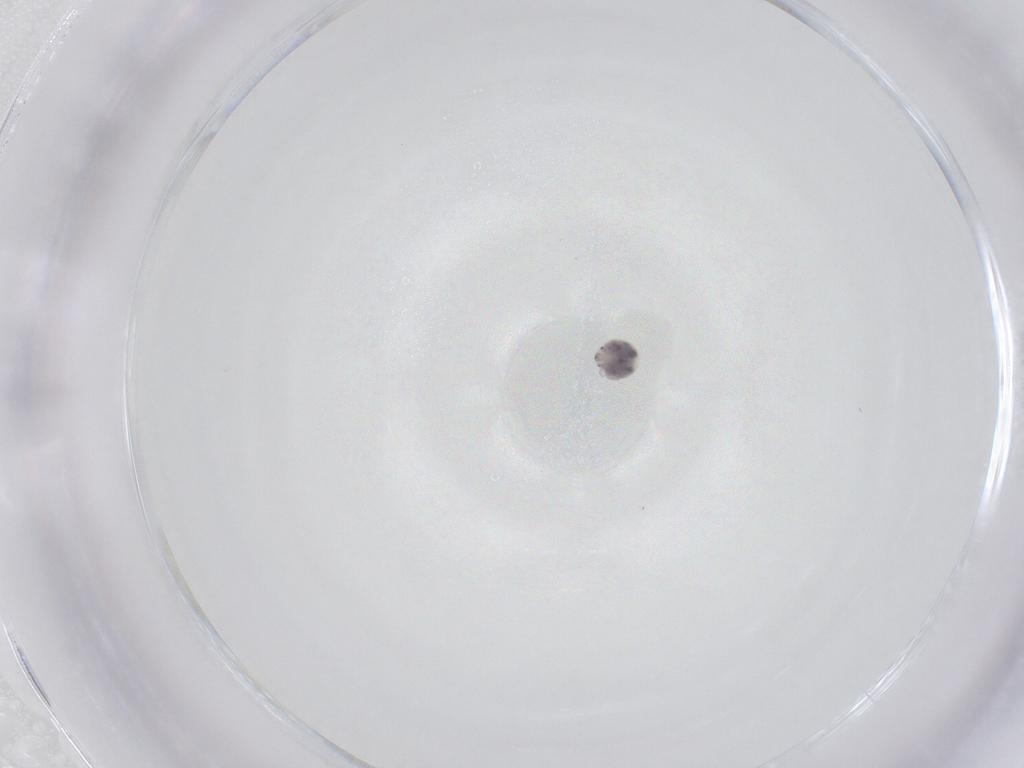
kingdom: Animalia
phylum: Arthropoda
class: Arachnida
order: Trombidiformes
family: Pionidae
